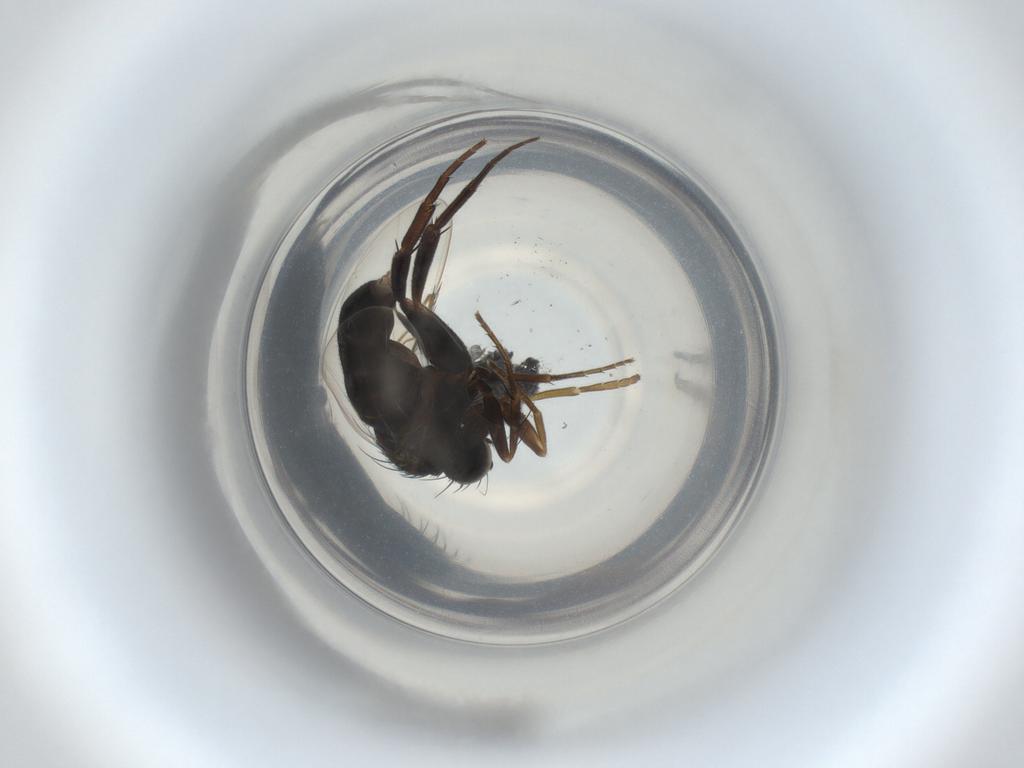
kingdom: Animalia
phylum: Arthropoda
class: Insecta
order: Diptera
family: Phoridae
